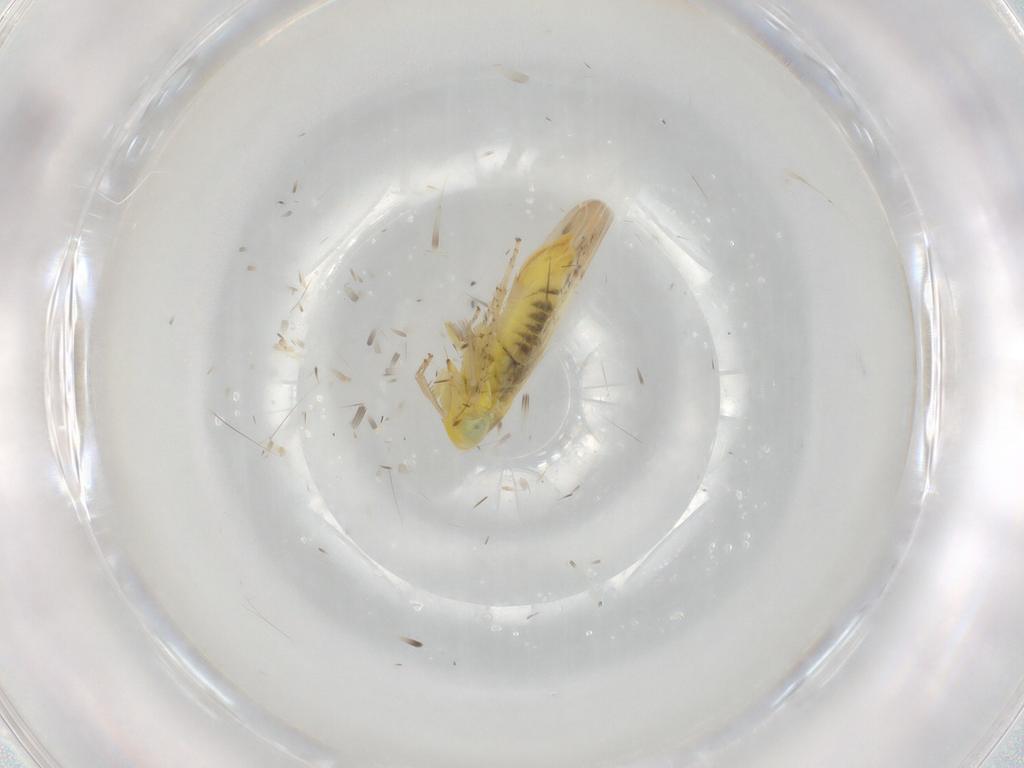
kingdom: Animalia
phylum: Arthropoda
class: Insecta
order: Hemiptera
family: Cicadellidae
